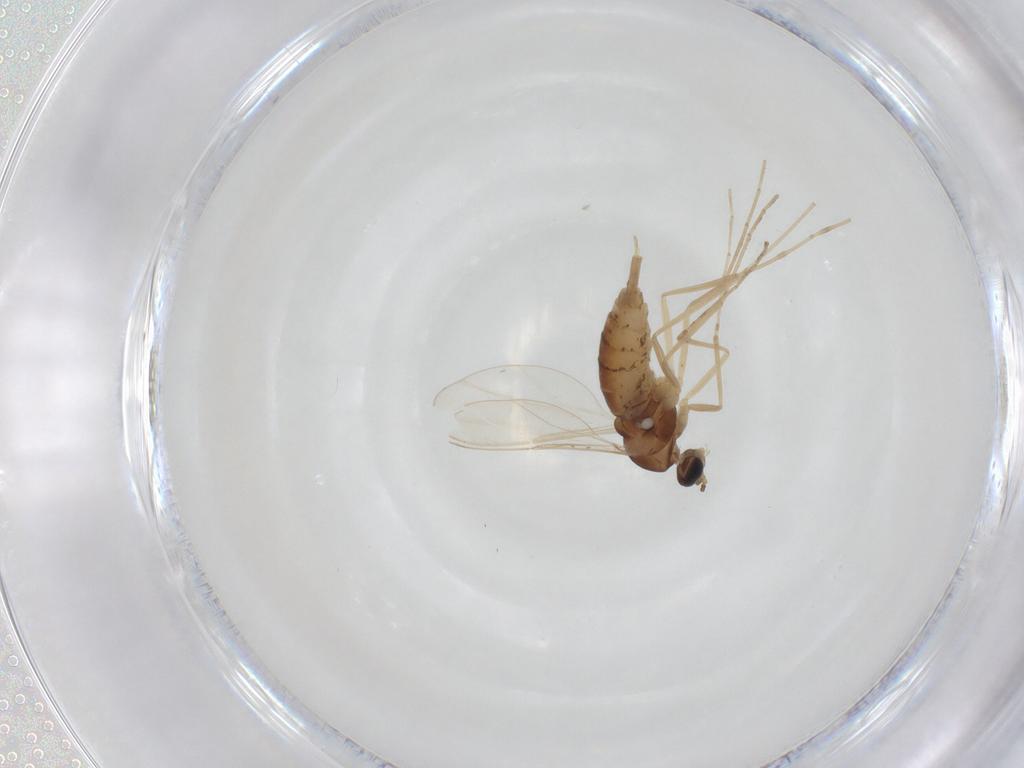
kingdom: Animalia
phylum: Arthropoda
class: Insecta
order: Diptera
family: Cecidomyiidae
